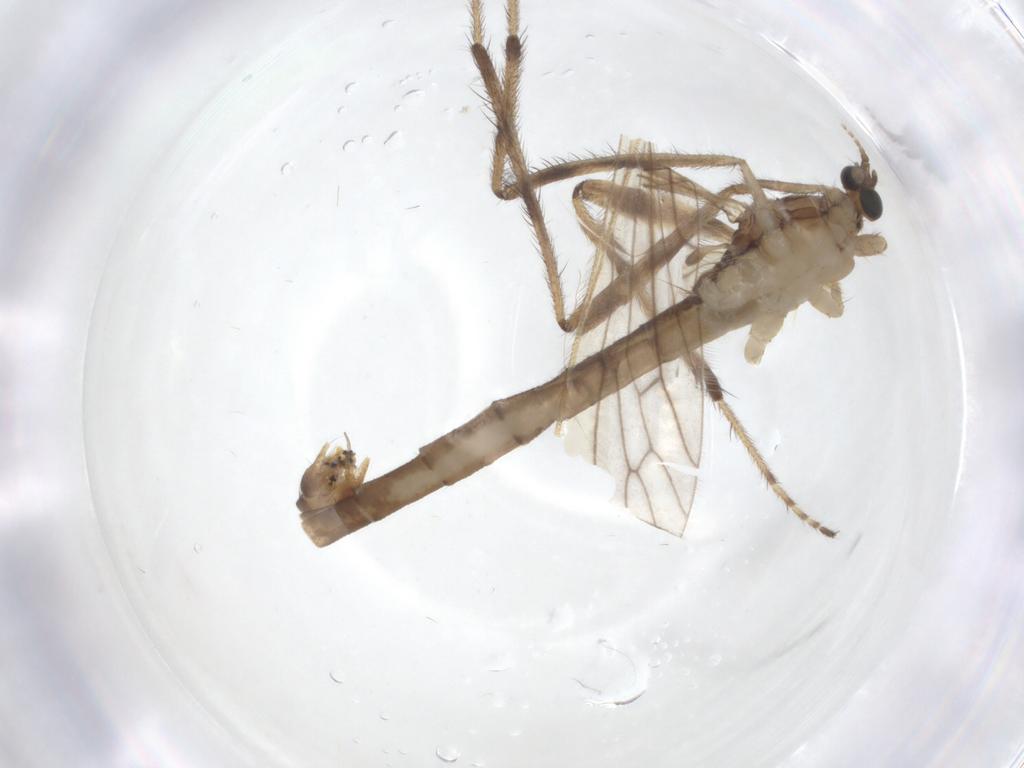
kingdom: Animalia
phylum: Arthropoda
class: Insecta
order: Diptera
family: Limoniidae
